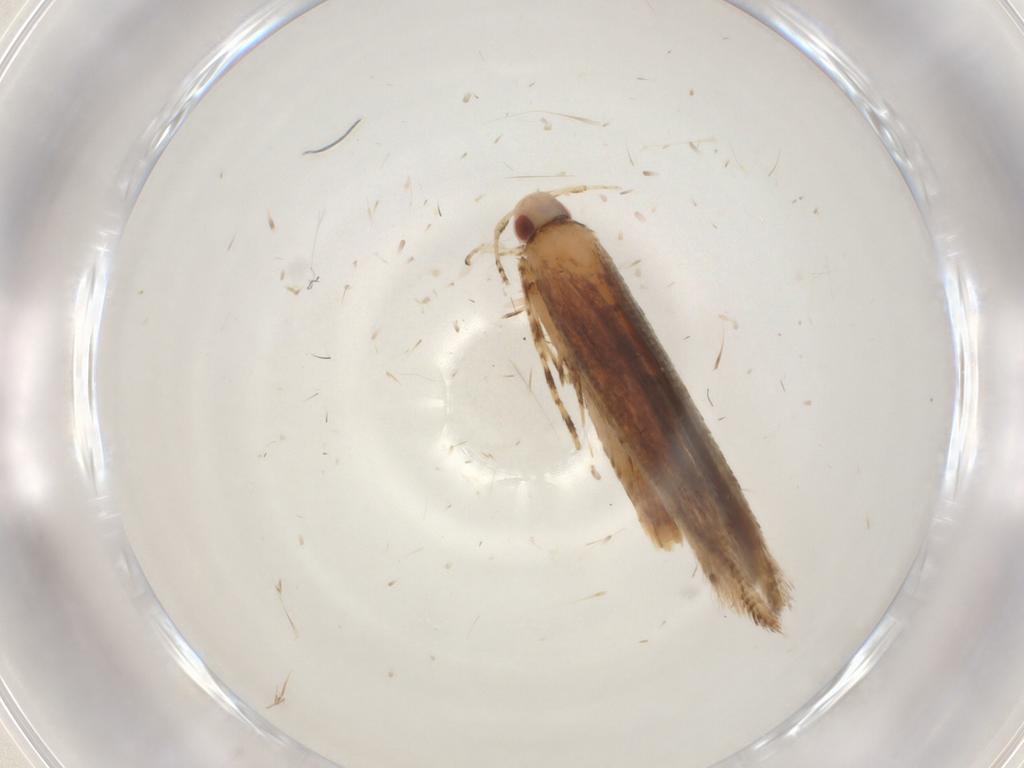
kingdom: Animalia
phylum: Arthropoda
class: Insecta
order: Lepidoptera
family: Cosmopterigidae
